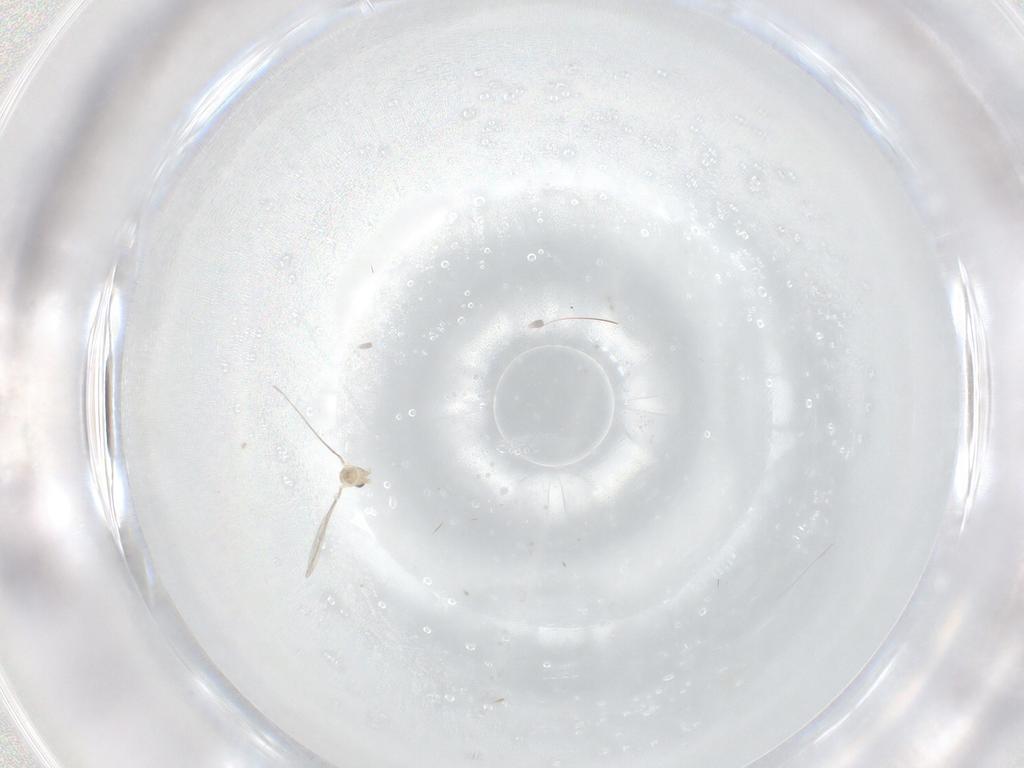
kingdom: Animalia
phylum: Arthropoda
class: Insecta
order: Diptera
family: Cecidomyiidae
